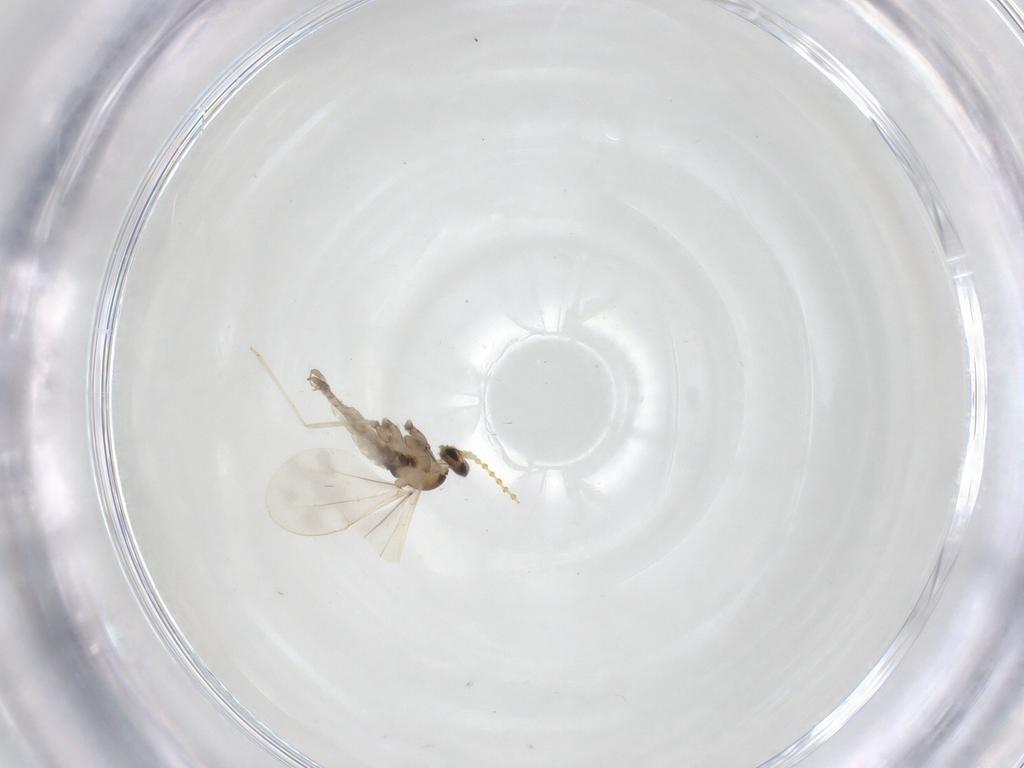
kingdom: Animalia
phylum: Arthropoda
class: Insecta
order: Diptera
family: Cecidomyiidae
